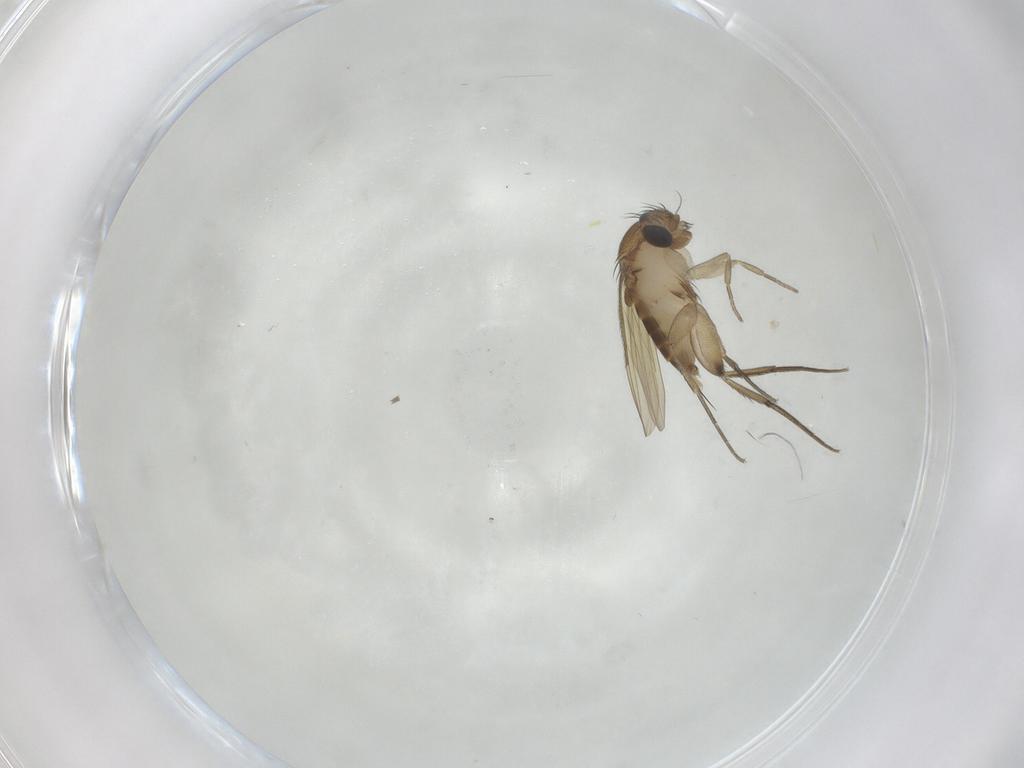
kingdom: Animalia
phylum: Arthropoda
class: Insecta
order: Diptera
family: Phoridae
